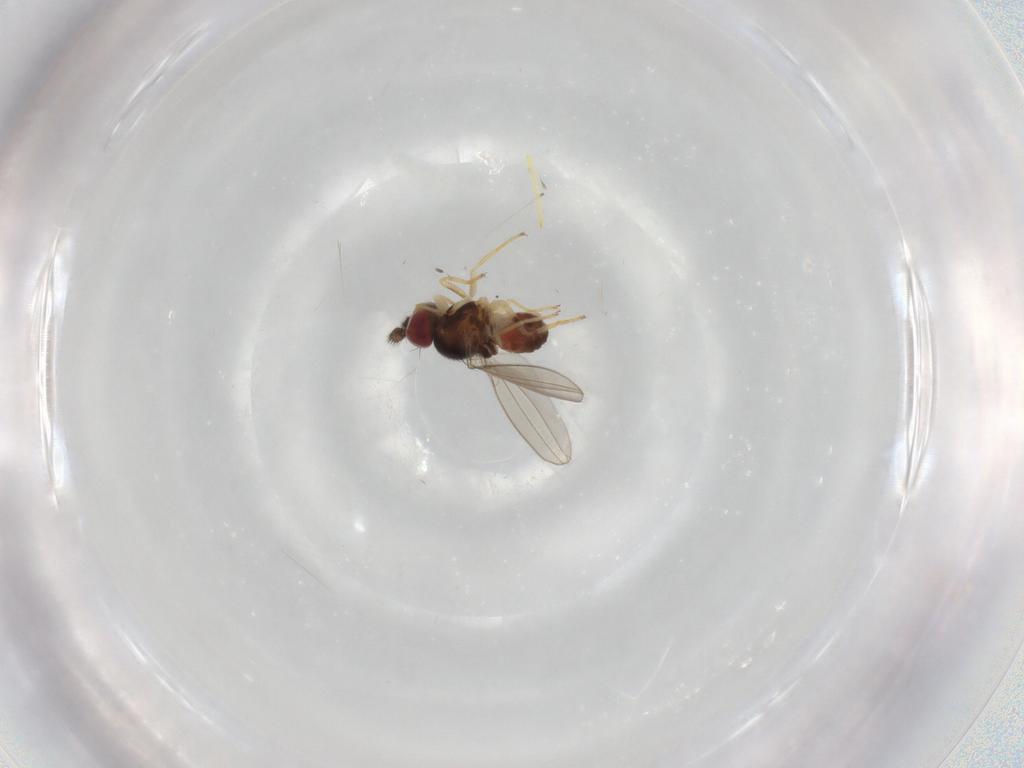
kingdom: Animalia
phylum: Arthropoda
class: Insecta
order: Diptera
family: Asteiidae
